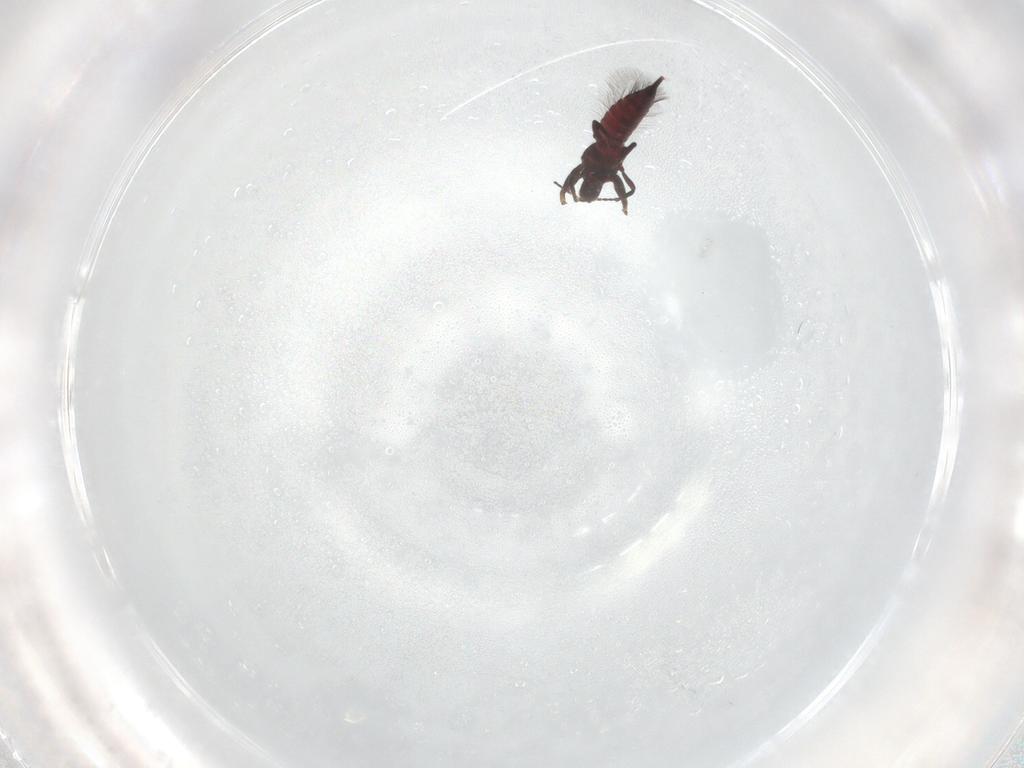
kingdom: Animalia
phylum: Arthropoda
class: Insecta
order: Thysanoptera
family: Phlaeothripidae
